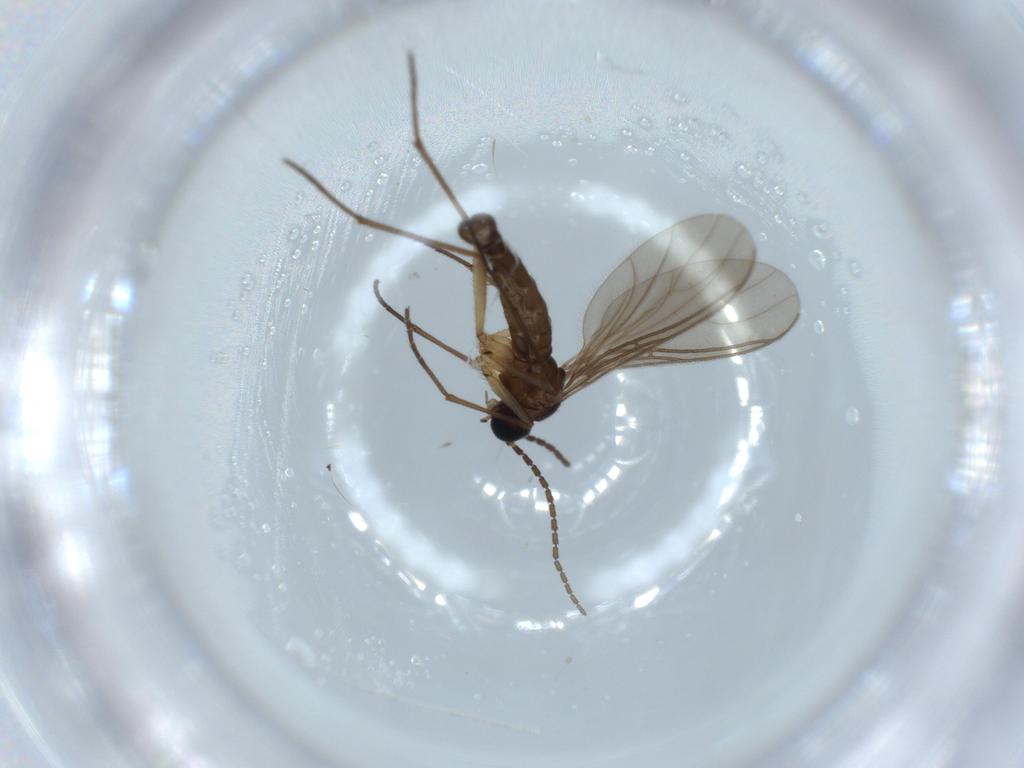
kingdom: Animalia
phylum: Arthropoda
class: Insecta
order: Diptera
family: Sciaridae
